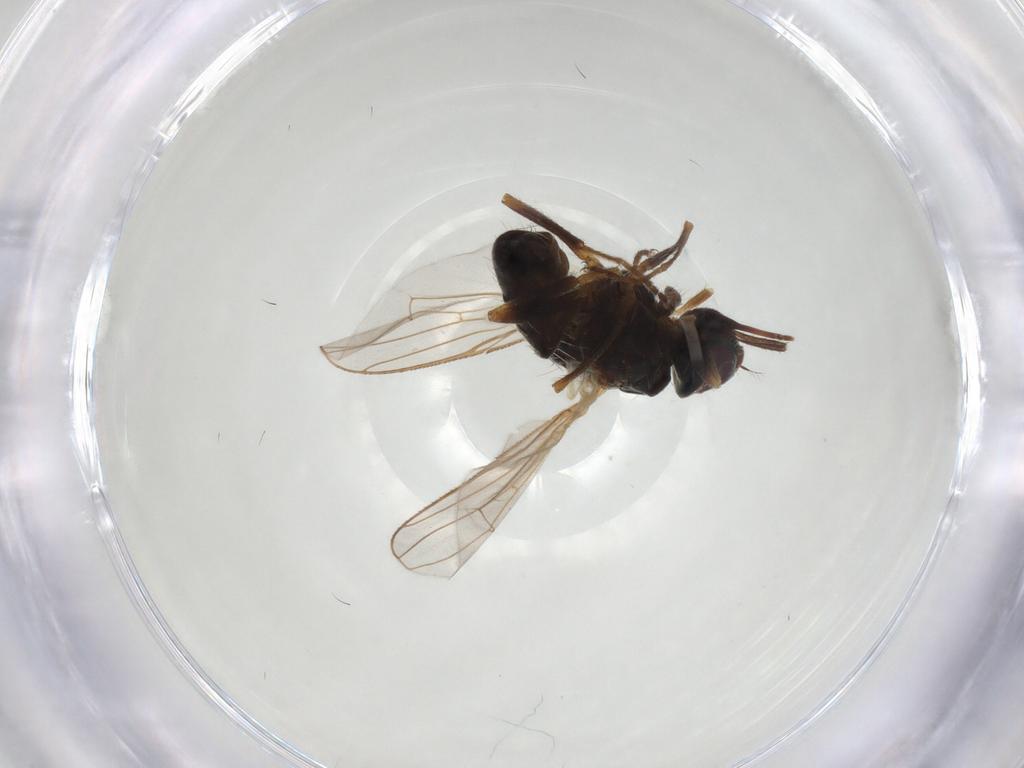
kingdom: Animalia
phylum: Arthropoda
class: Insecta
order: Diptera
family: Muscidae
